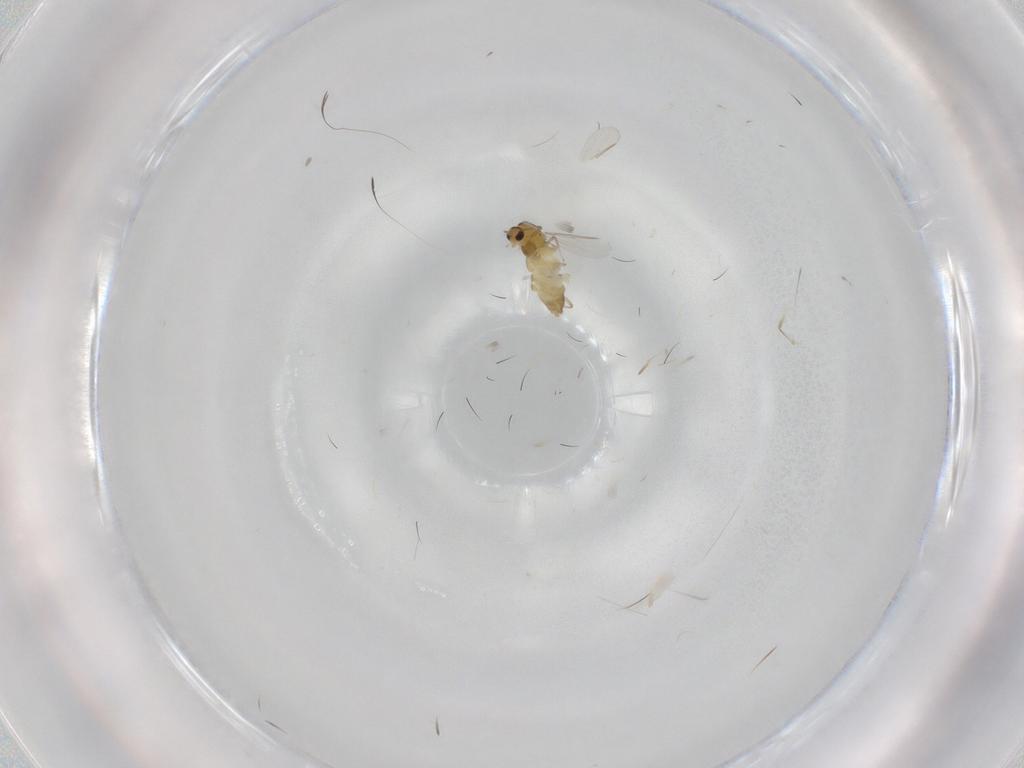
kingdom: Animalia
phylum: Arthropoda
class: Insecta
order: Diptera
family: Chironomidae
